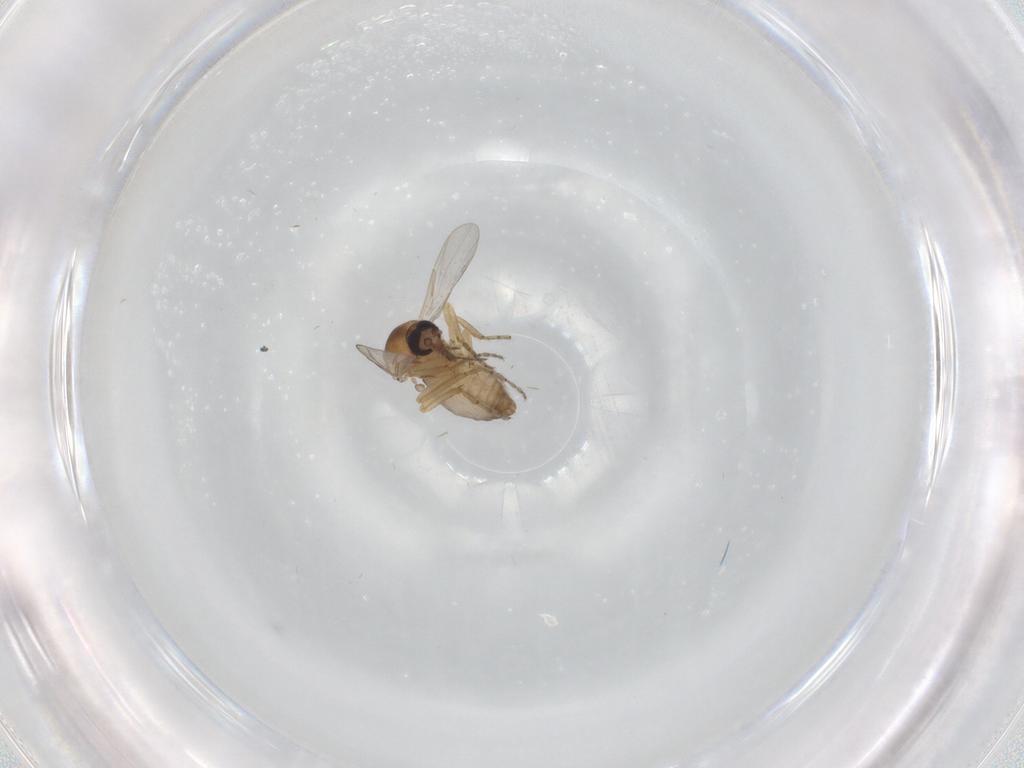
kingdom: Animalia
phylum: Arthropoda
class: Insecta
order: Diptera
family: Ceratopogonidae
